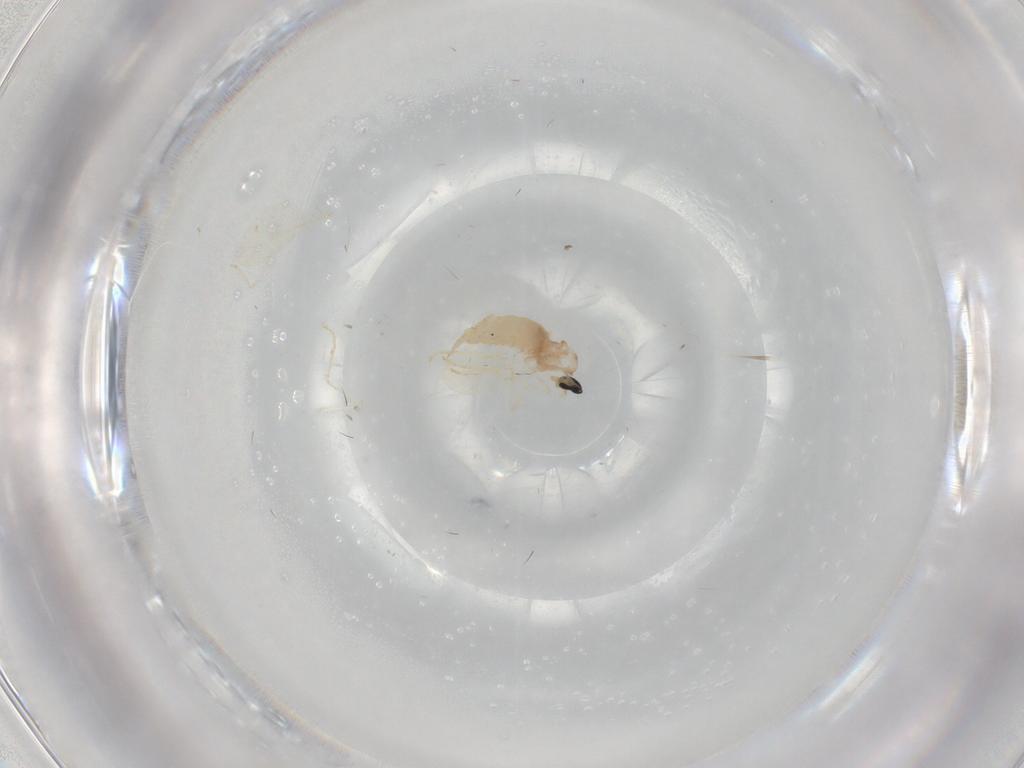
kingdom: Animalia
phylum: Arthropoda
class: Insecta
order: Diptera
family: Cecidomyiidae
